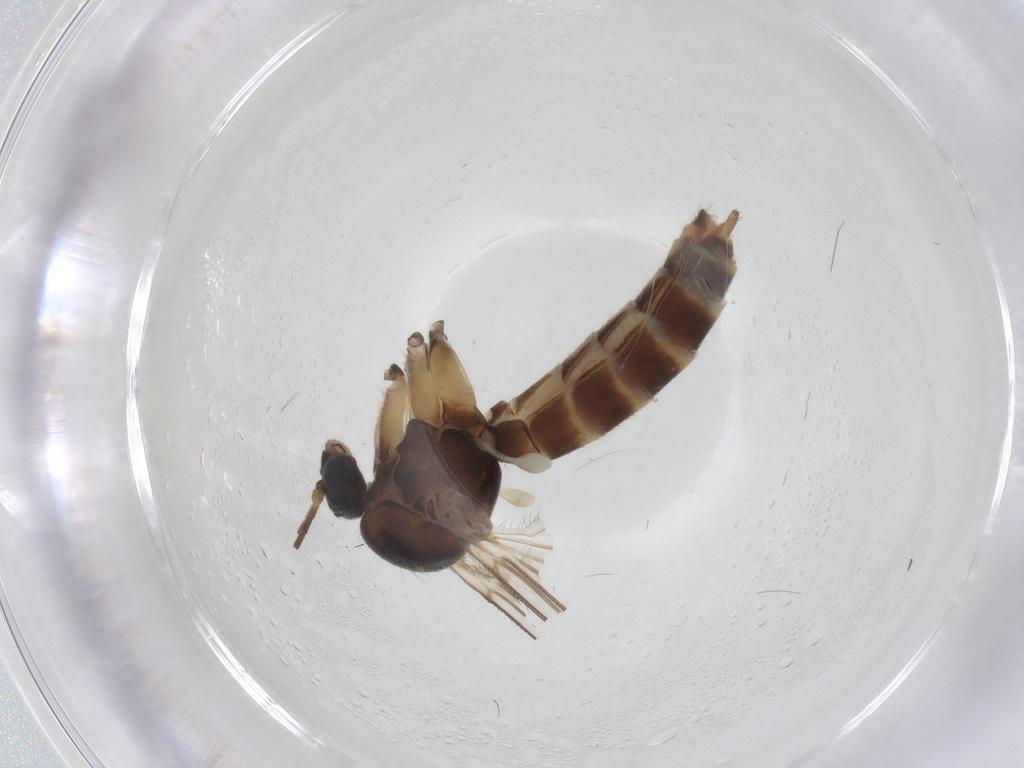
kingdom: Animalia
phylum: Arthropoda
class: Insecta
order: Diptera
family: Mycetophilidae
